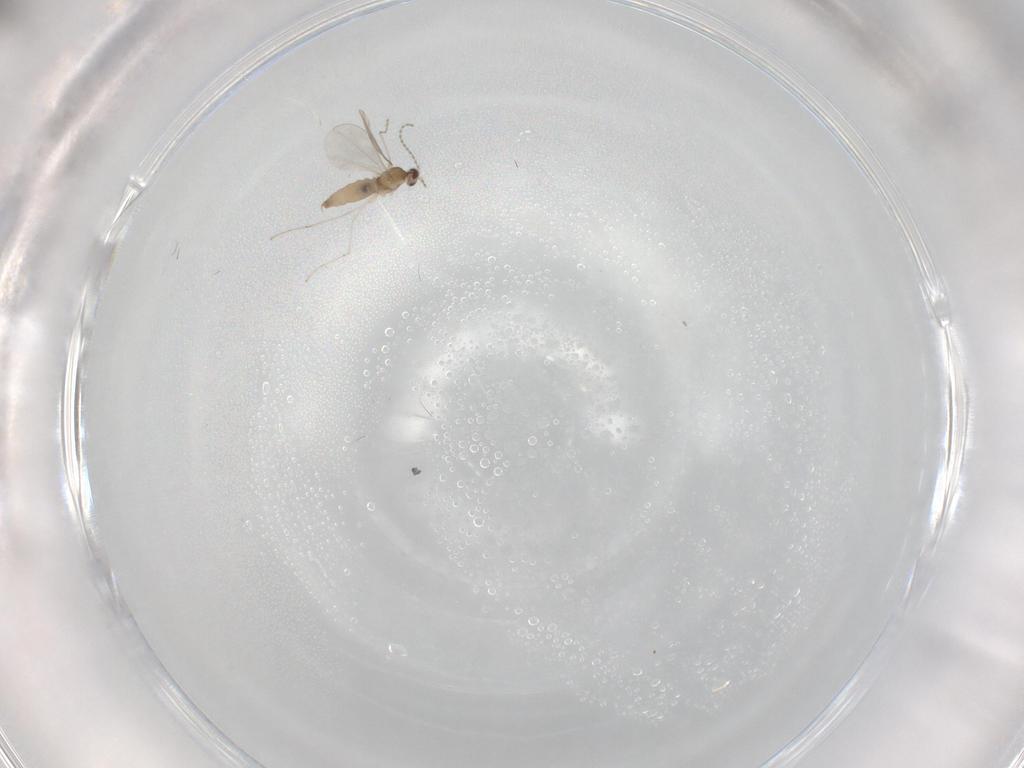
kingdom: Animalia
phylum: Arthropoda
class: Insecta
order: Diptera
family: Cecidomyiidae
